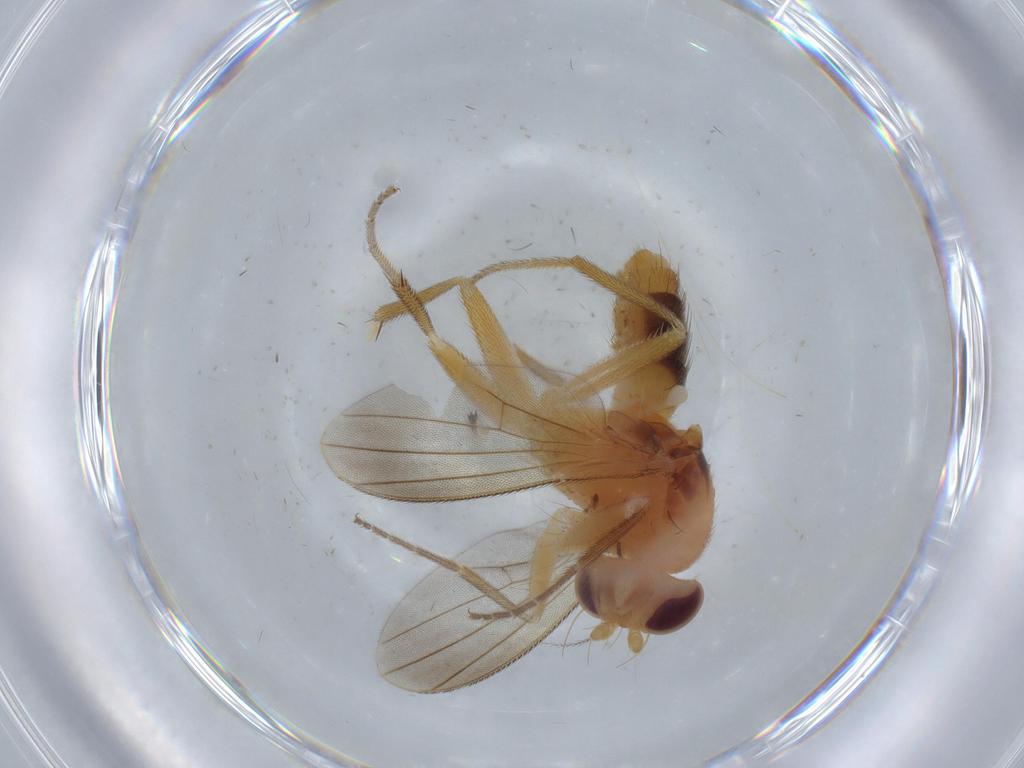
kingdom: Animalia
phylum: Arthropoda
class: Insecta
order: Diptera
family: Agromyzidae
